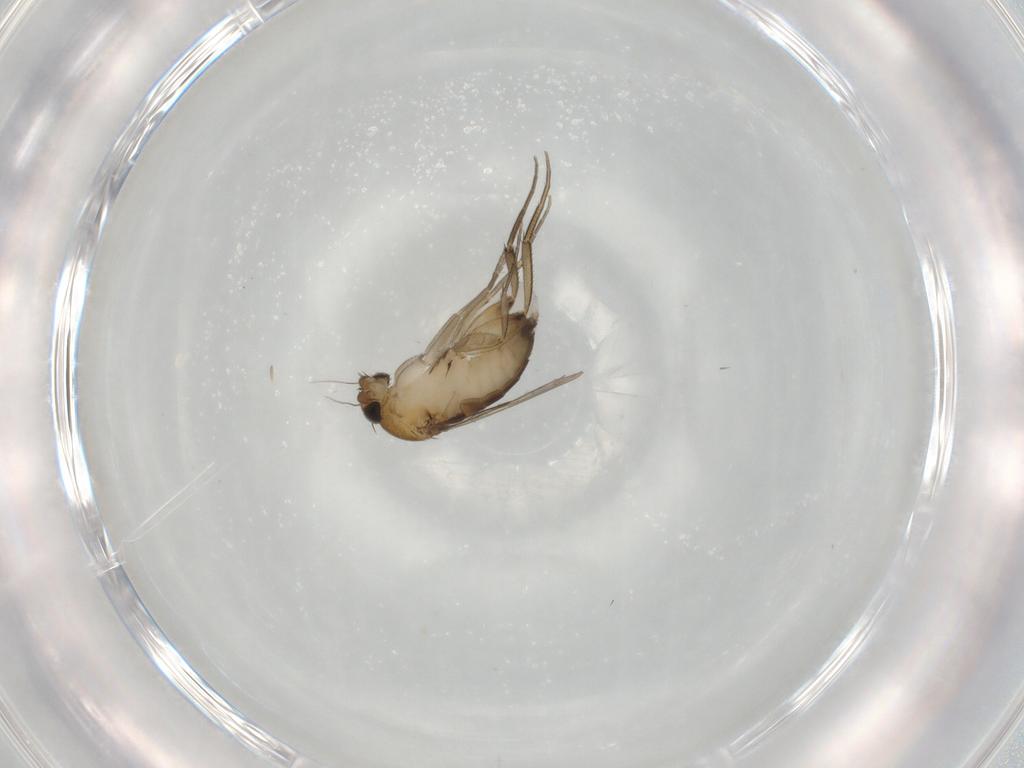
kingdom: Animalia
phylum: Arthropoda
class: Insecta
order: Diptera
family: Phoridae
